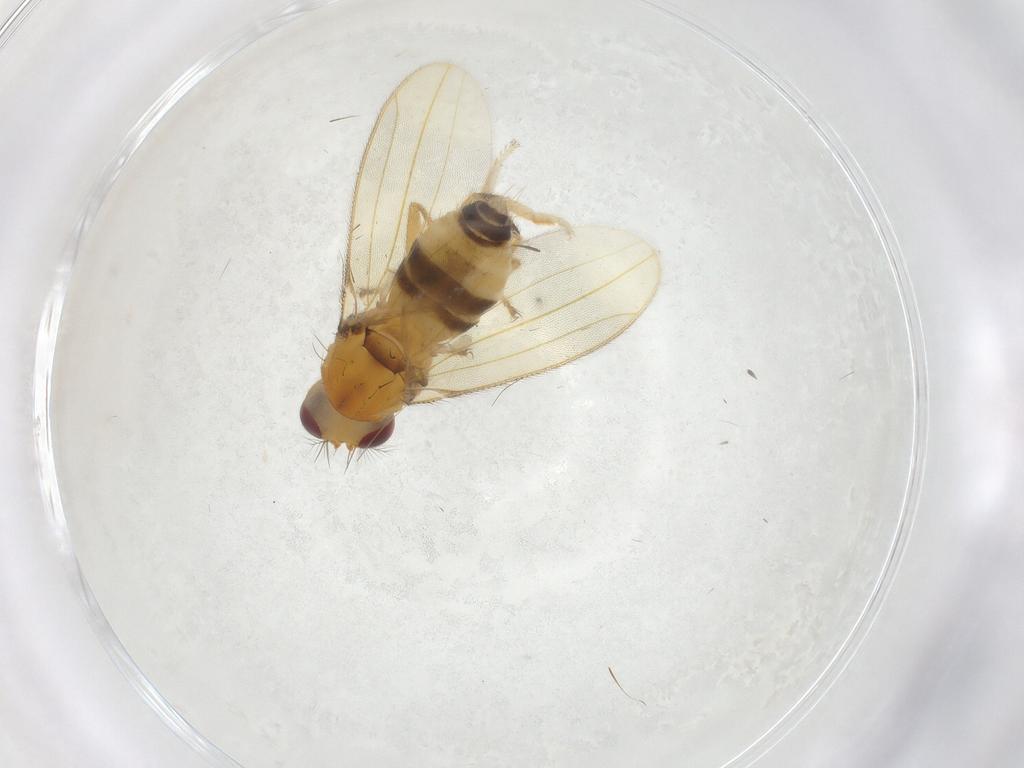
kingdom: Animalia
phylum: Arthropoda
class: Insecta
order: Diptera
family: Periscelididae
